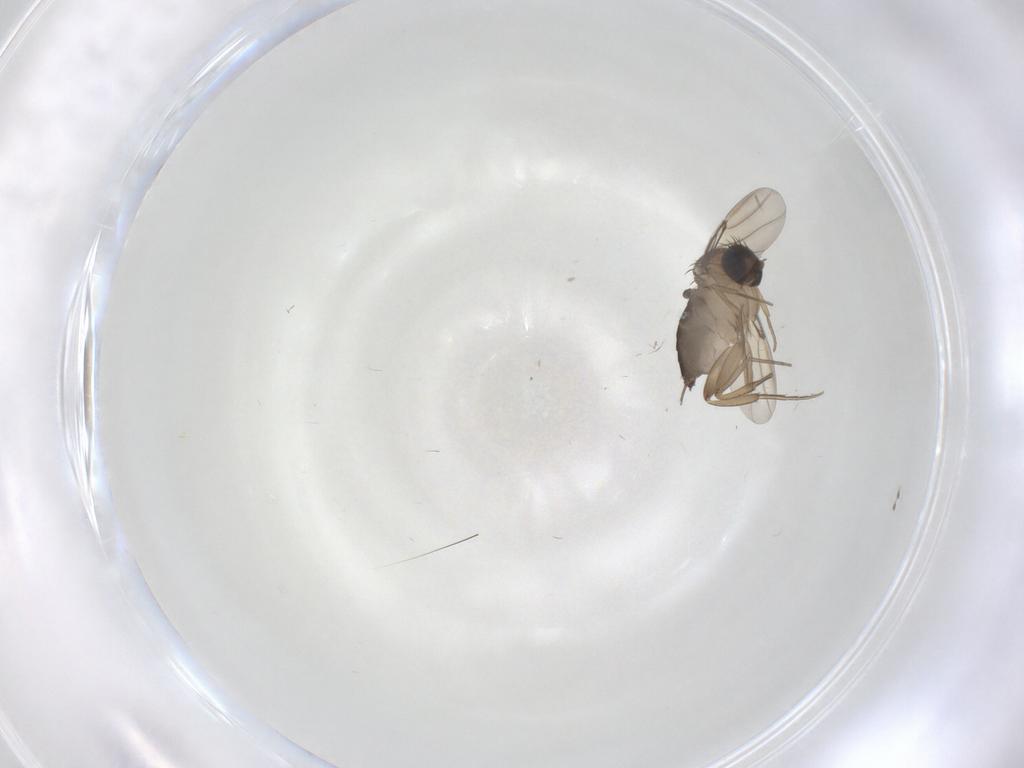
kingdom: Animalia
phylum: Arthropoda
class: Insecta
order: Diptera
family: Phoridae
